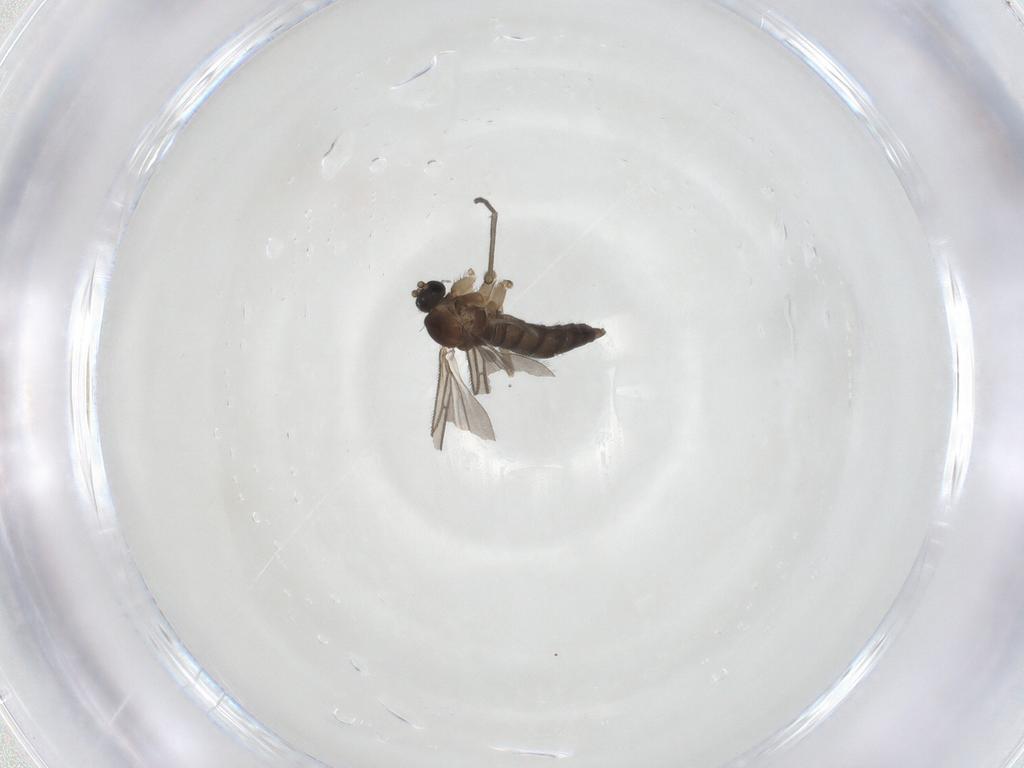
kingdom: Animalia
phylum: Arthropoda
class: Insecta
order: Diptera
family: Sciaridae
